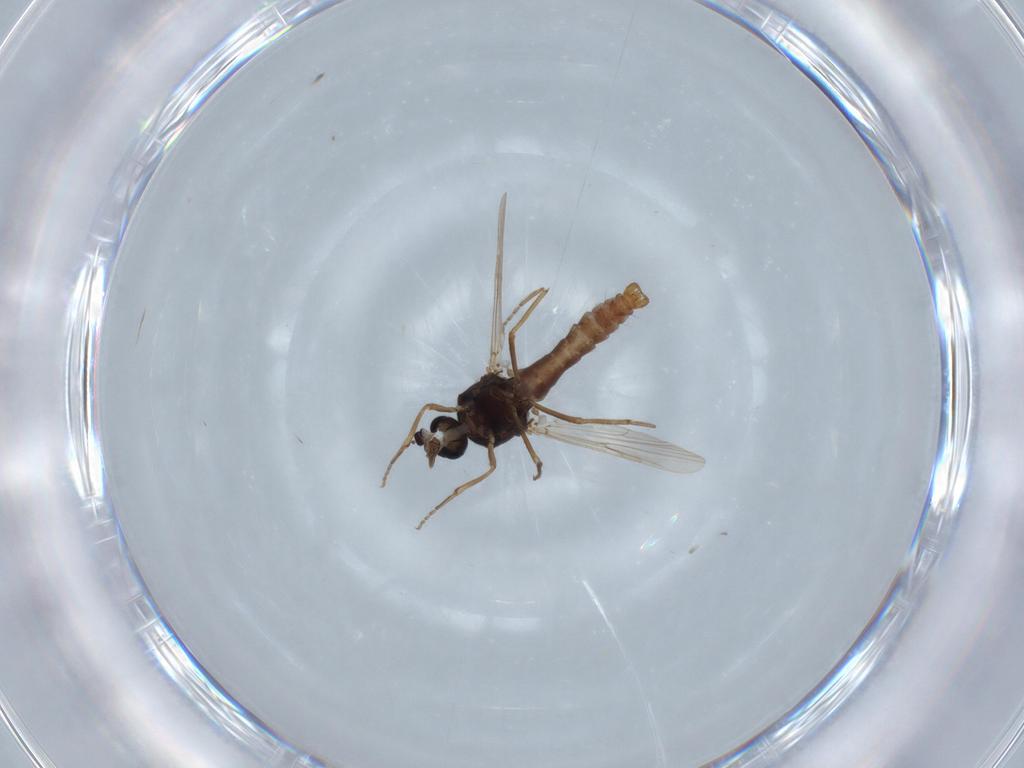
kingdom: Animalia
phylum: Arthropoda
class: Insecta
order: Diptera
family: Ceratopogonidae
